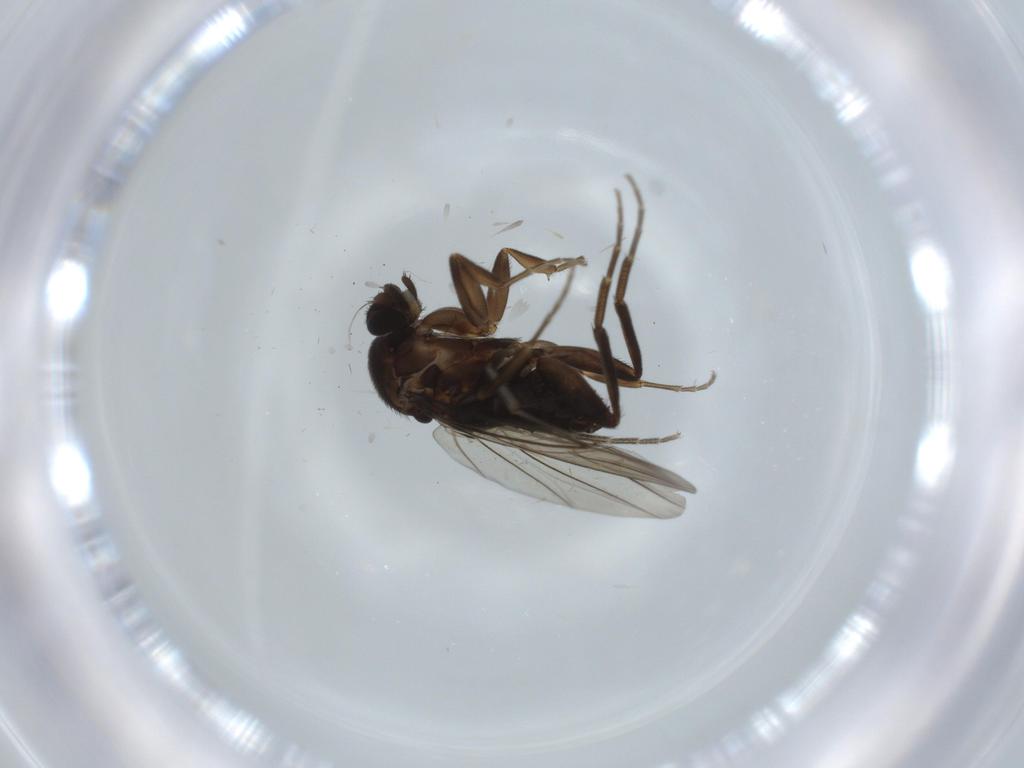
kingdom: Animalia
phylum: Arthropoda
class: Insecta
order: Diptera
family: Mycetophilidae
